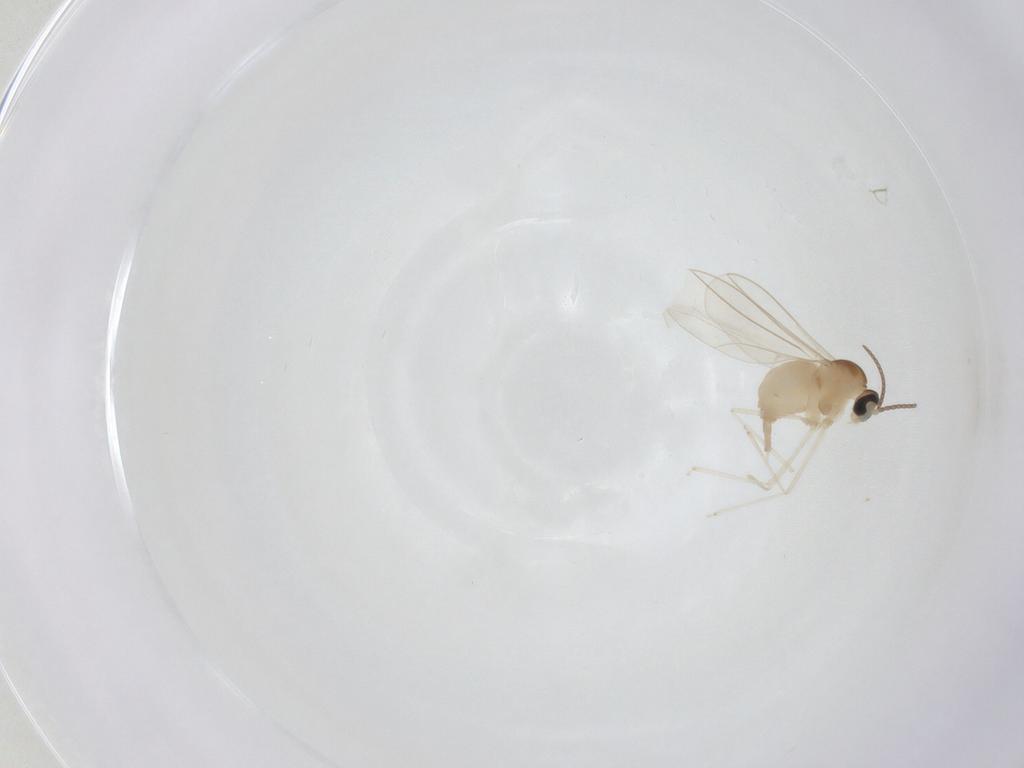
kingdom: Animalia
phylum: Arthropoda
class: Insecta
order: Diptera
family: Cecidomyiidae
